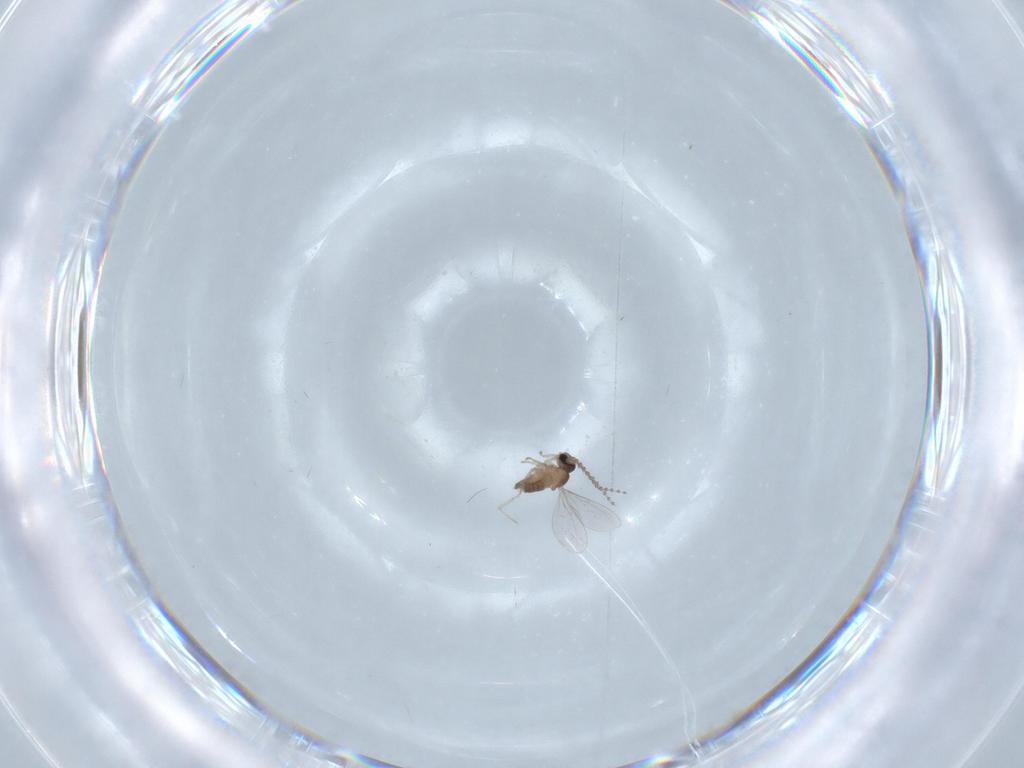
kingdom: Animalia
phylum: Arthropoda
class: Insecta
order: Diptera
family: Cecidomyiidae
